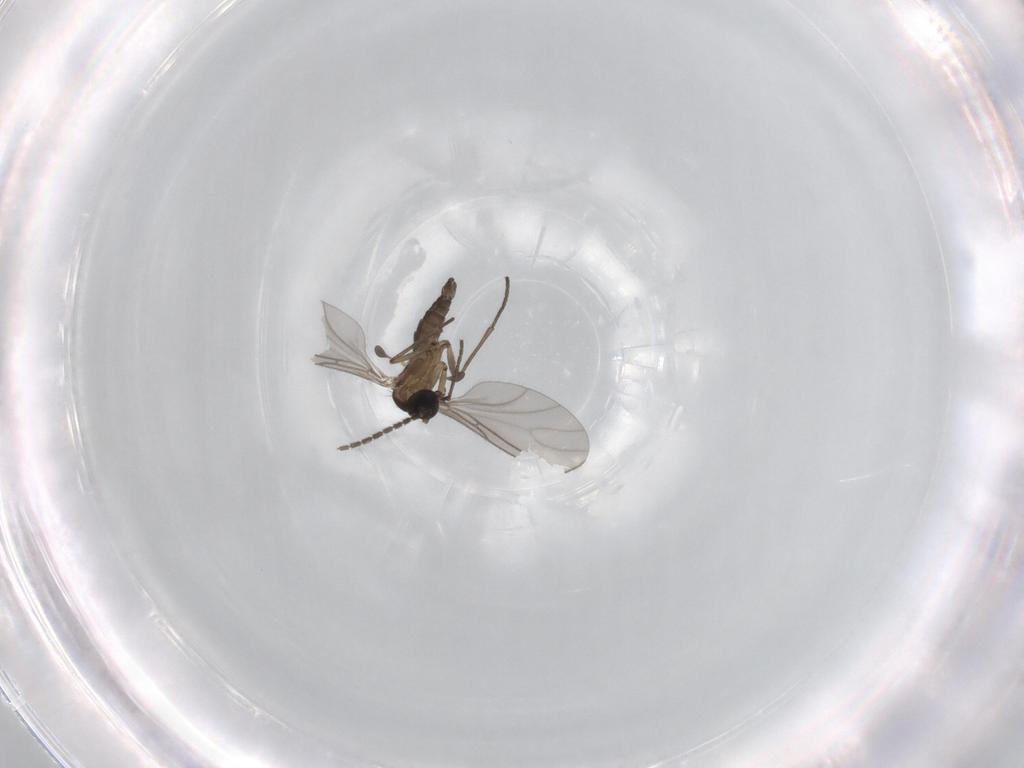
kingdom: Animalia
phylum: Arthropoda
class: Insecta
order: Diptera
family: Sciaridae
